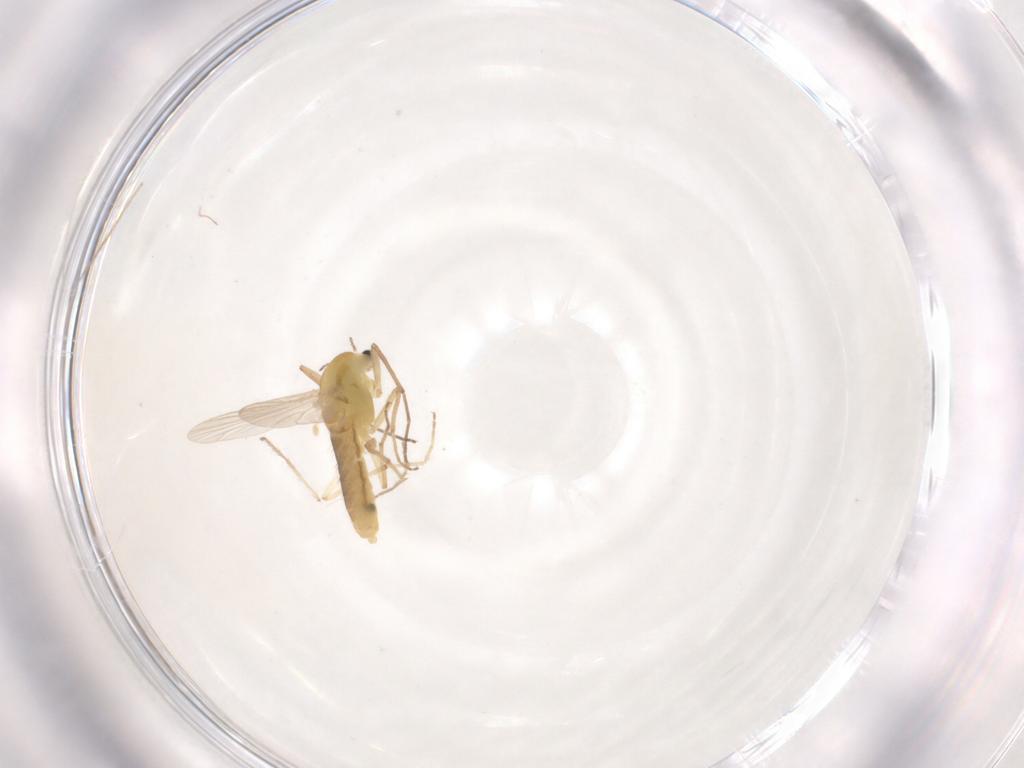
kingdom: Animalia
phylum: Arthropoda
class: Insecta
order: Diptera
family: Chironomidae
